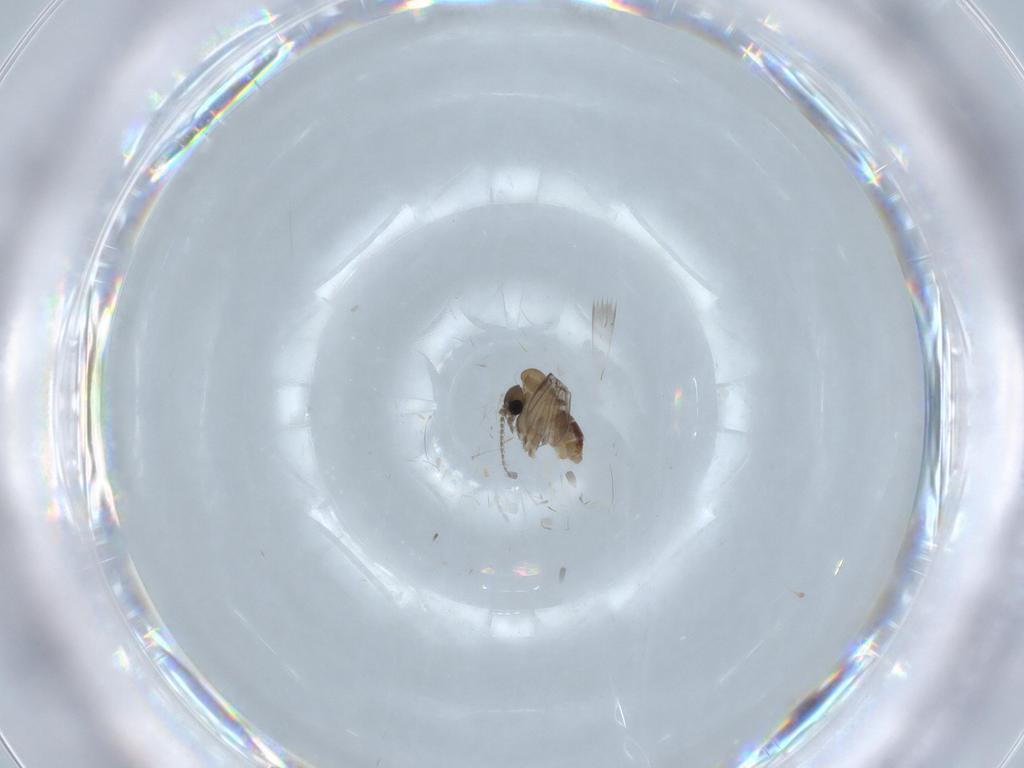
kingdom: Animalia
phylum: Arthropoda
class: Insecta
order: Diptera
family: Psychodidae
